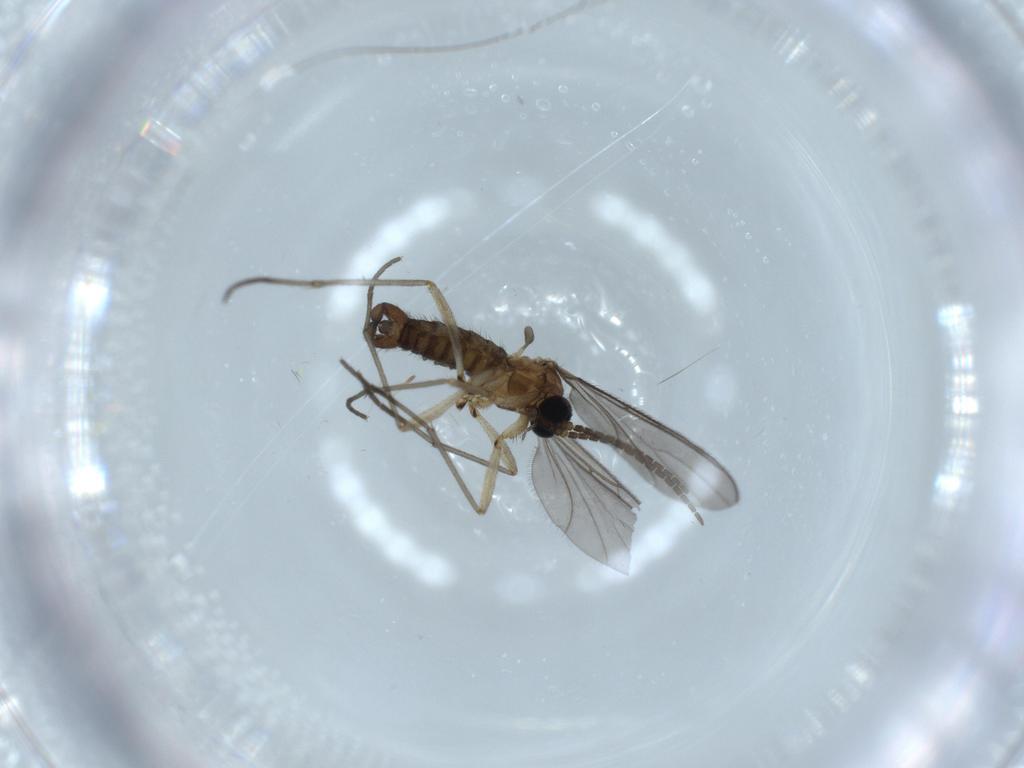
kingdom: Animalia
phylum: Arthropoda
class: Insecta
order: Diptera
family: Sciaridae
